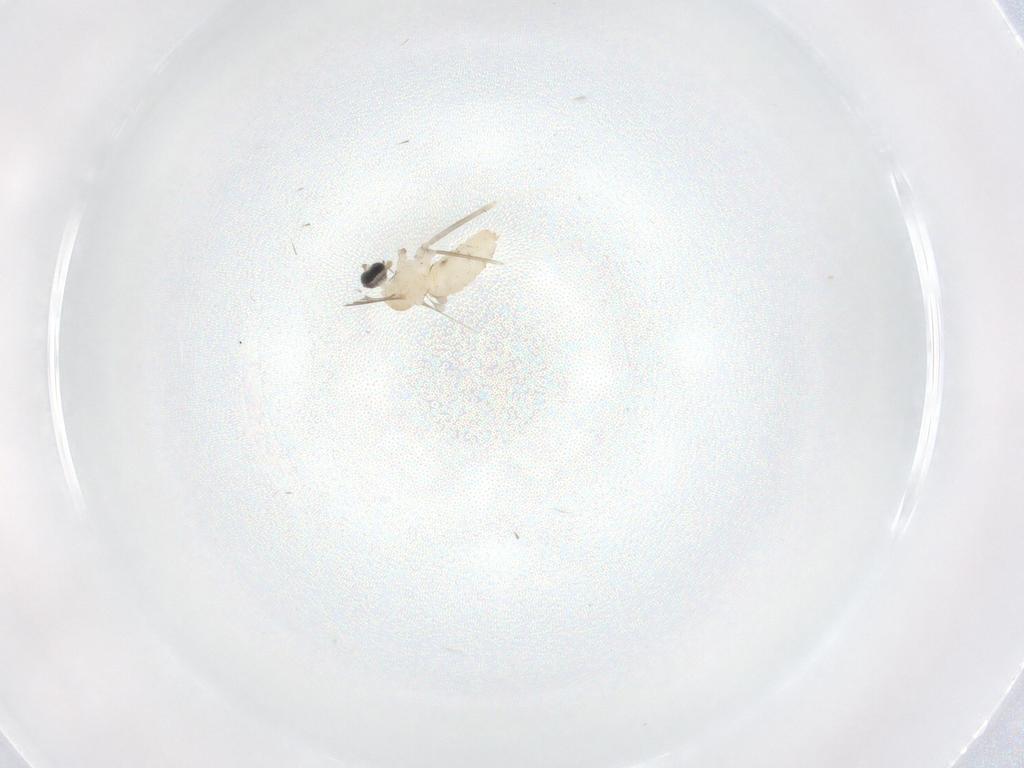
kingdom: Animalia
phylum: Arthropoda
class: Insecta
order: Diptera
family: Cecidomyiidae
